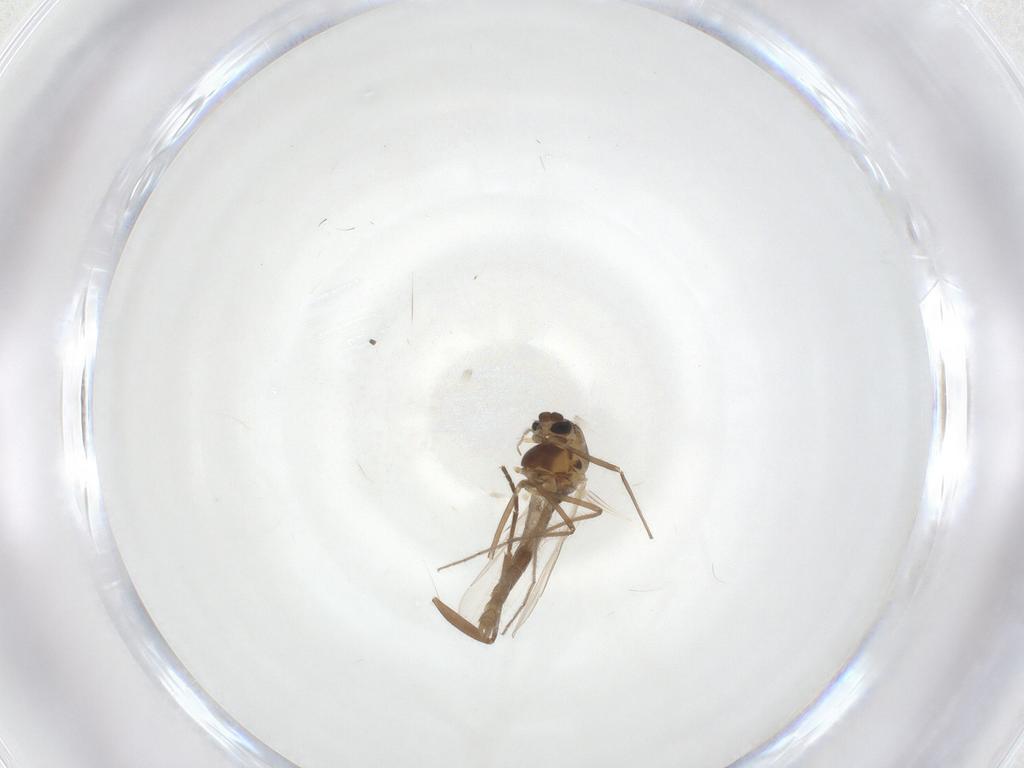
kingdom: Animalia
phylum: Arthropoda
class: Insecta
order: Diptera
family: Chironomidae
